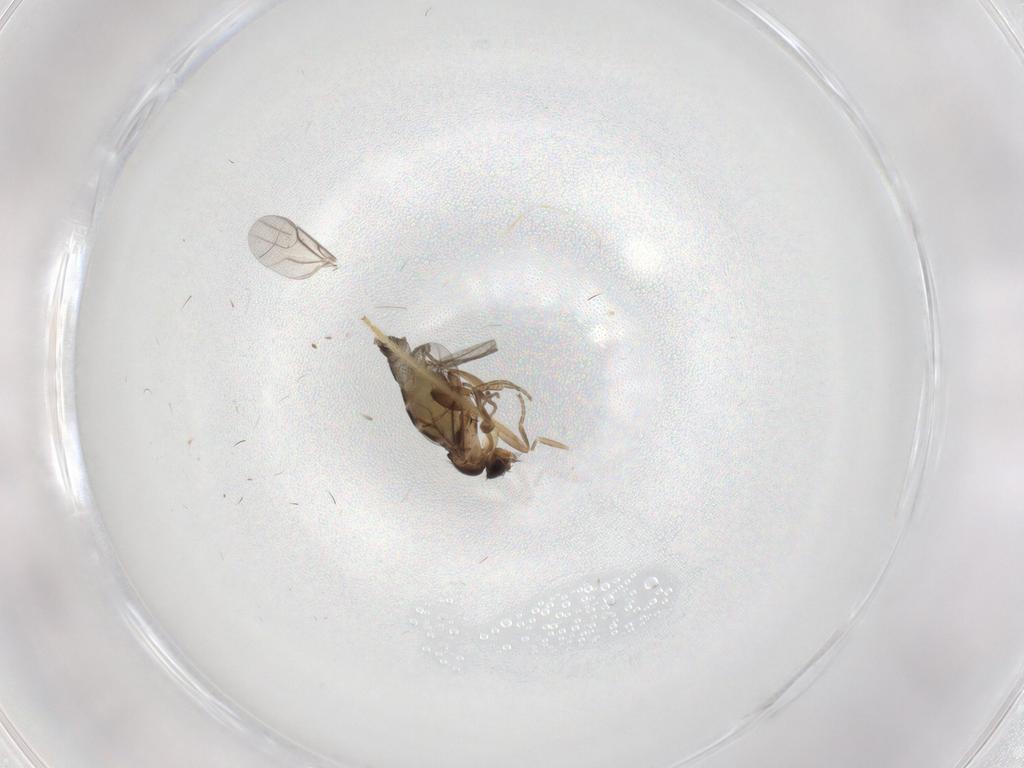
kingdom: Animalia
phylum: Arthropoda
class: Insecta
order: Diptera
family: Phoridae
